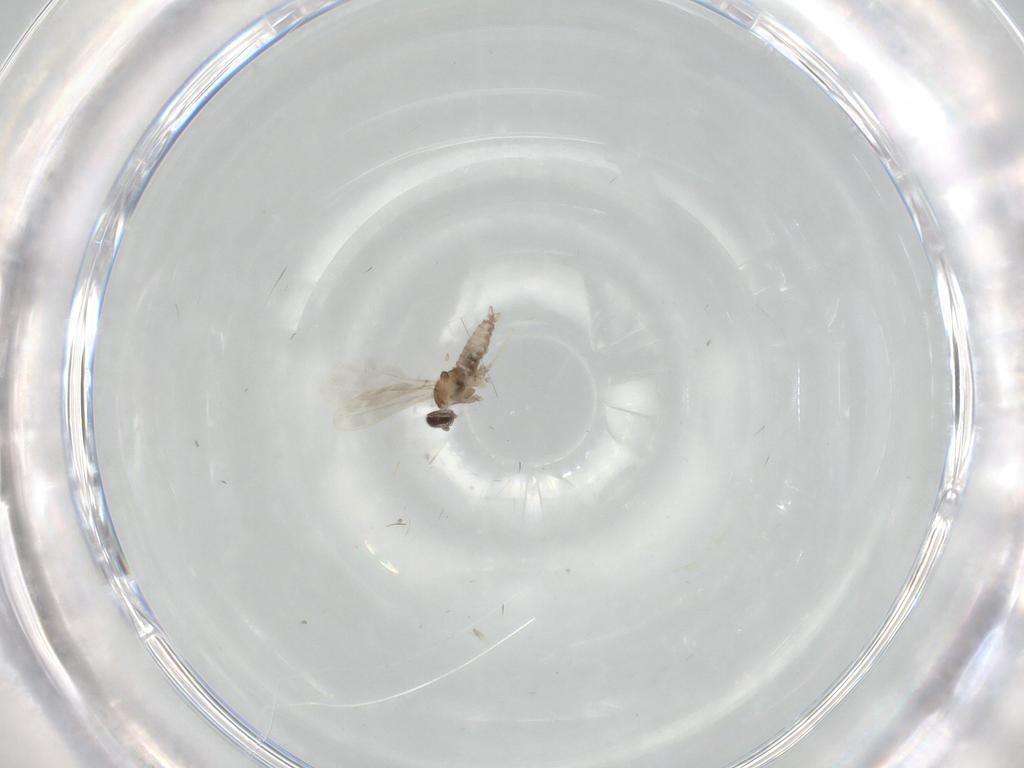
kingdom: Animalia
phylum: Arthropoda
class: Insecta
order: Diptera
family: Cecidomyiidae
